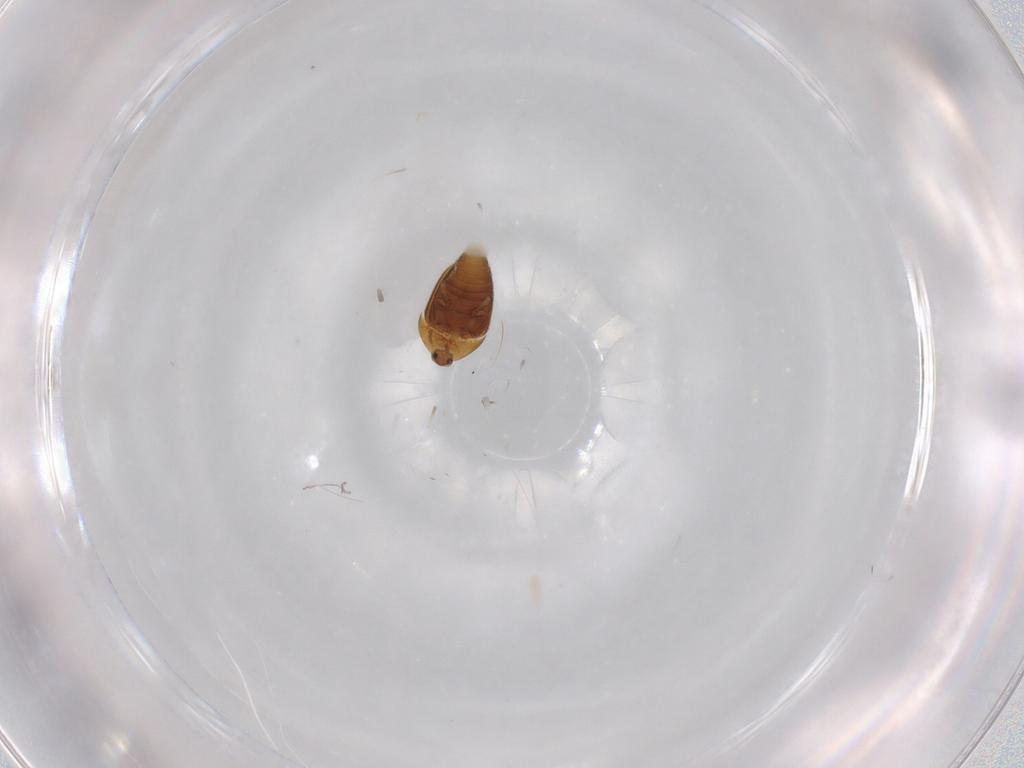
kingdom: Animalia
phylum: Arthropoda
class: Insecta
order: Coleoptera
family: Corylophidae
